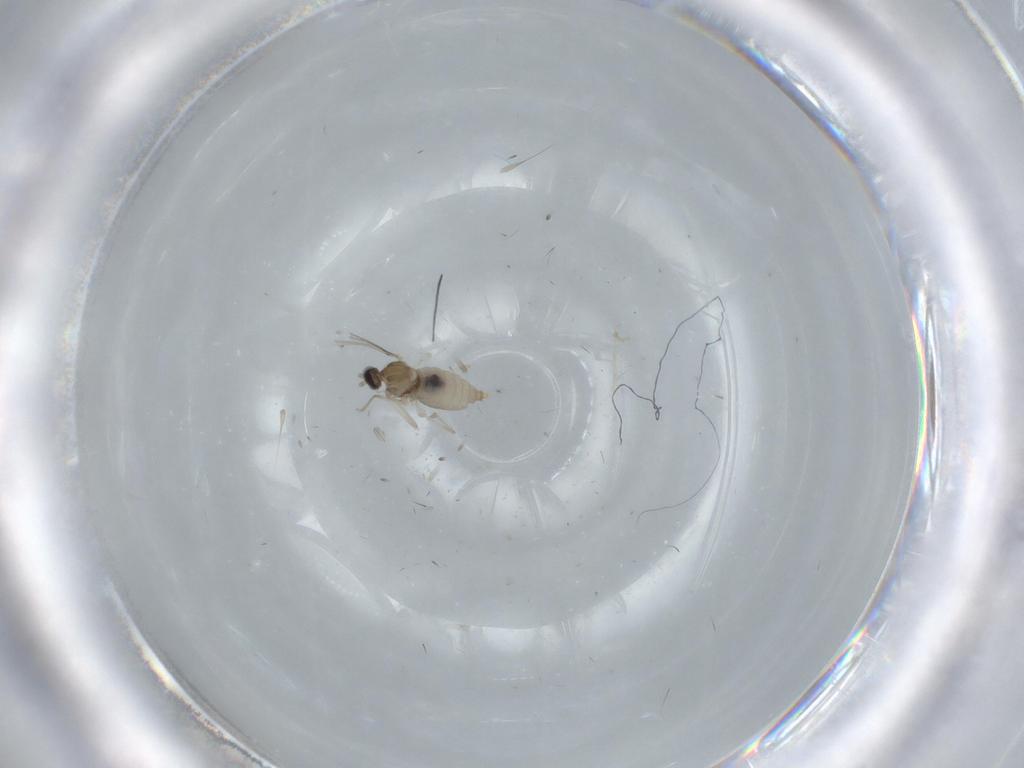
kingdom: Animalia
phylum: Arthropoda
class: Insecta
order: Diptera
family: Cecidomyiidae
